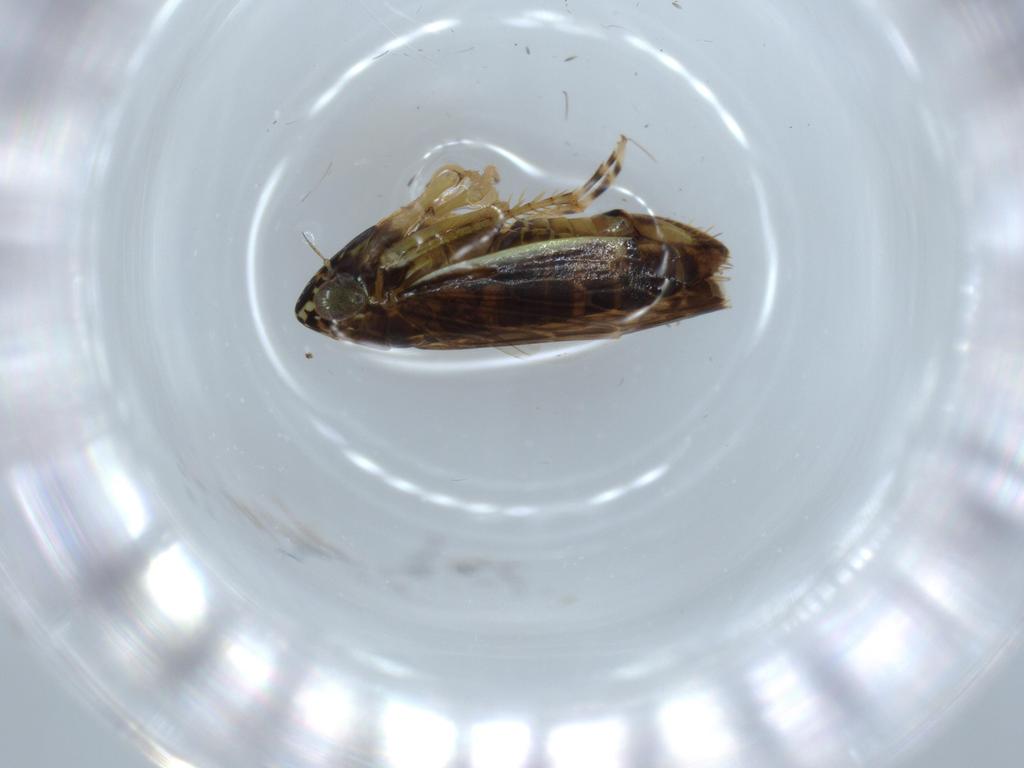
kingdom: Animalia
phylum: Arthropoda
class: Insecta
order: Hemiptera
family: Cicadellidae
